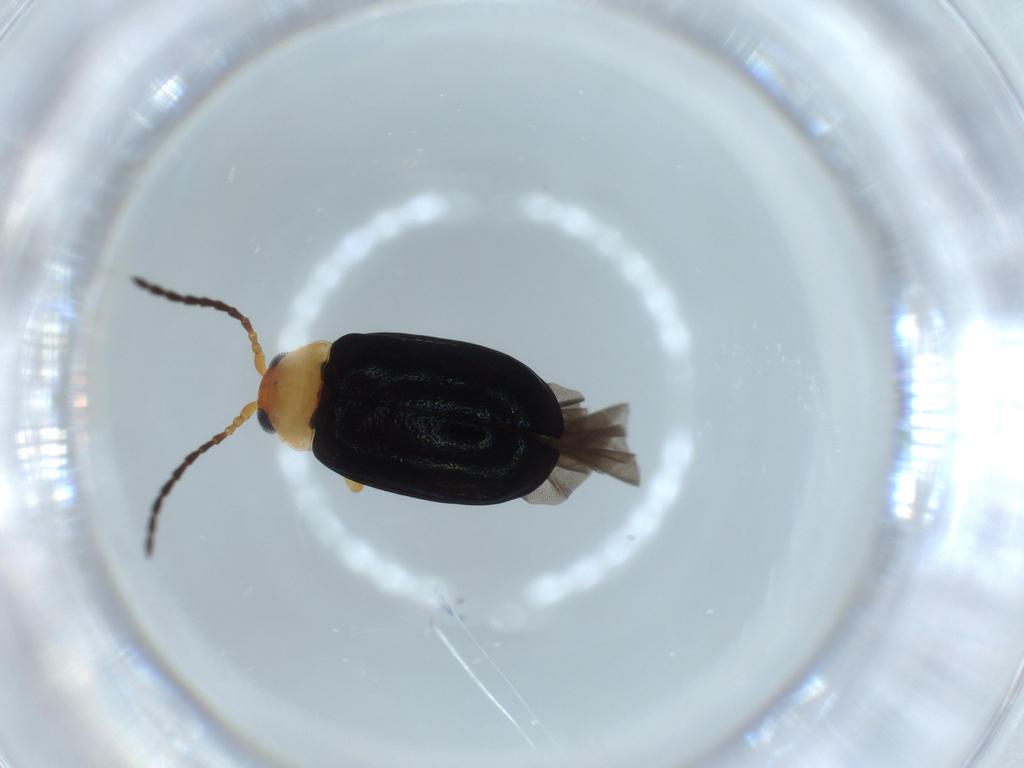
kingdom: Animalia
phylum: Arthropoda
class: Insecta
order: Coleoptera
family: Chrysomelidae
